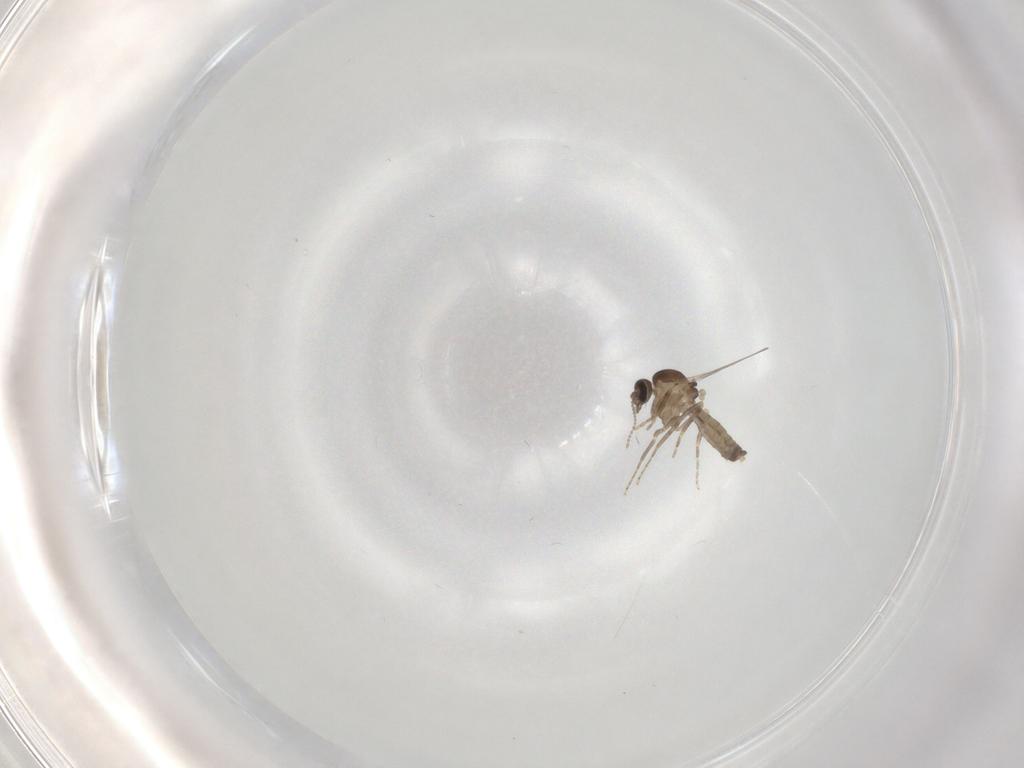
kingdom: Animalia
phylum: Arthropoda
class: Insecta
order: Diptera
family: Ceratopogonidae
